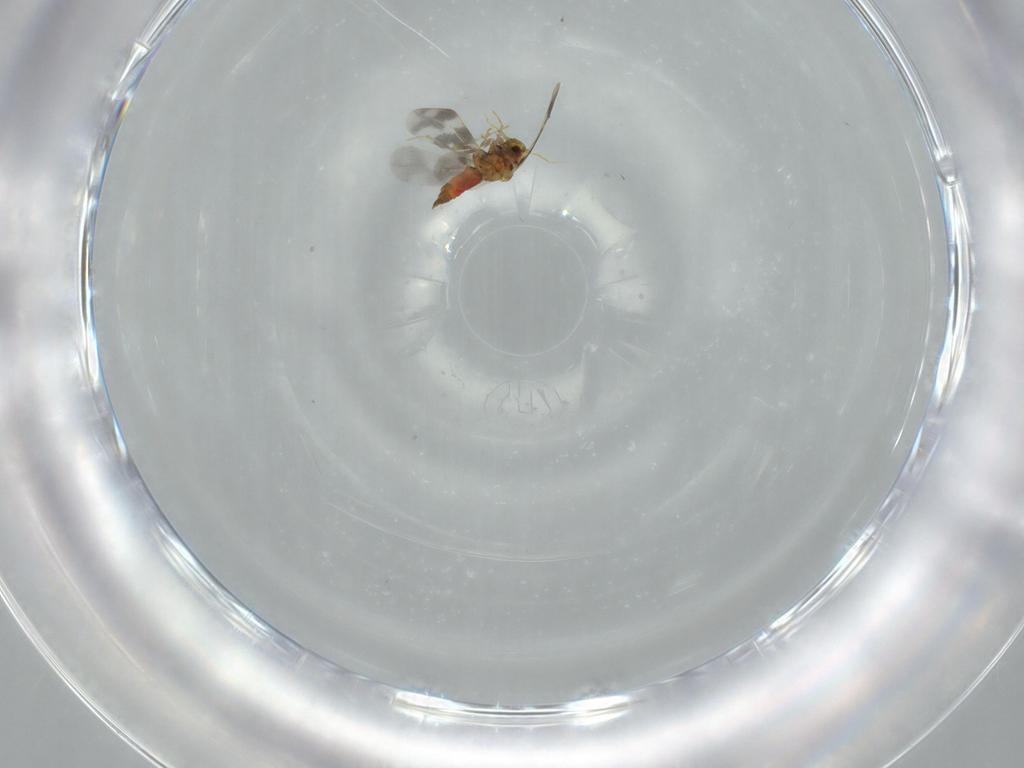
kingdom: Animalia
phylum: Arthropoda
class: Insecta
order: Hemiptera
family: Aleyrodidae
